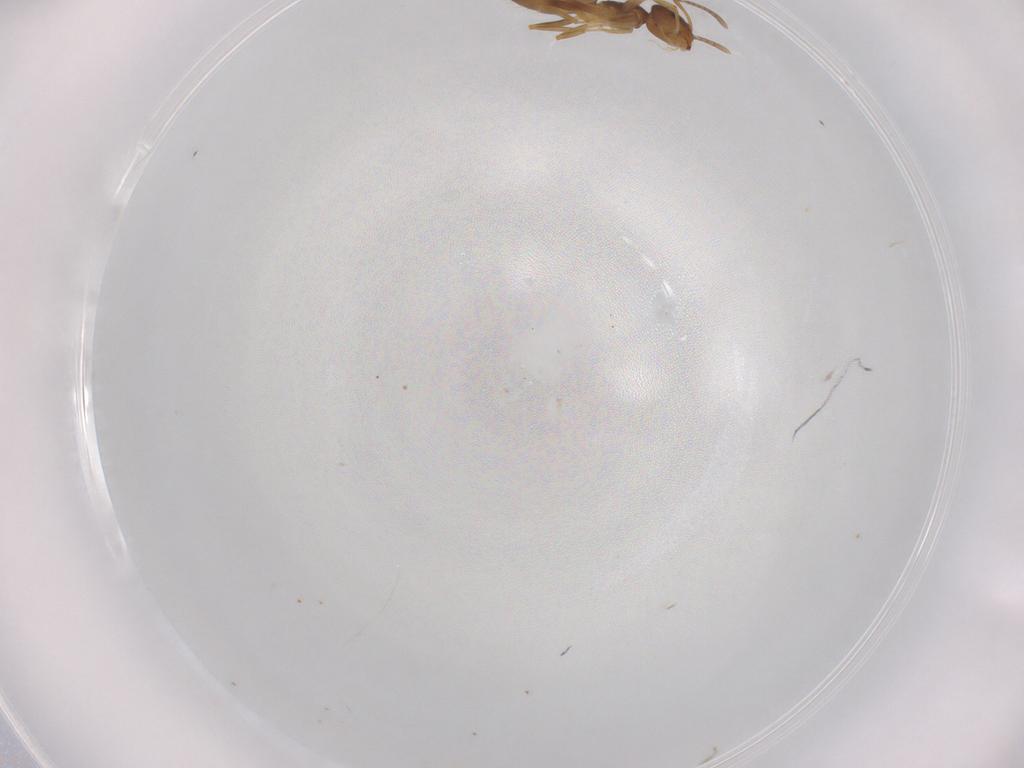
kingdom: Animalia
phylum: Arthropoda
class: Insecta
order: Hymenoptera
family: Formicidae
